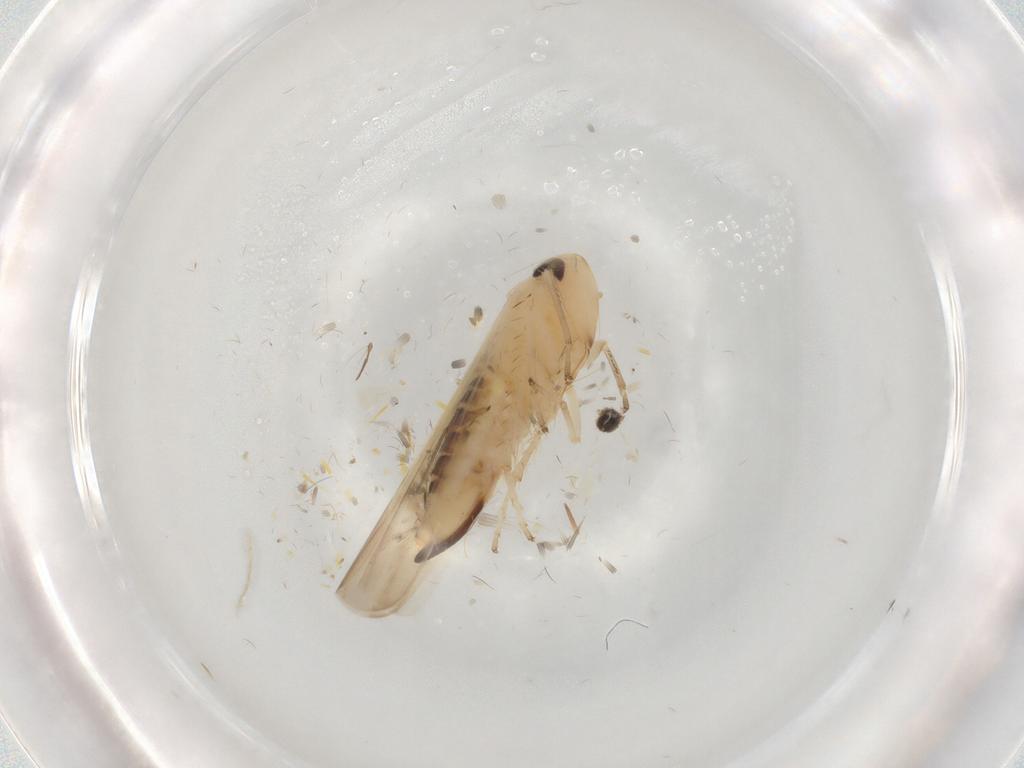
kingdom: Animalia
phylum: Arthropoda
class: Insecta
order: Hemiptera
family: Cicadellidae
